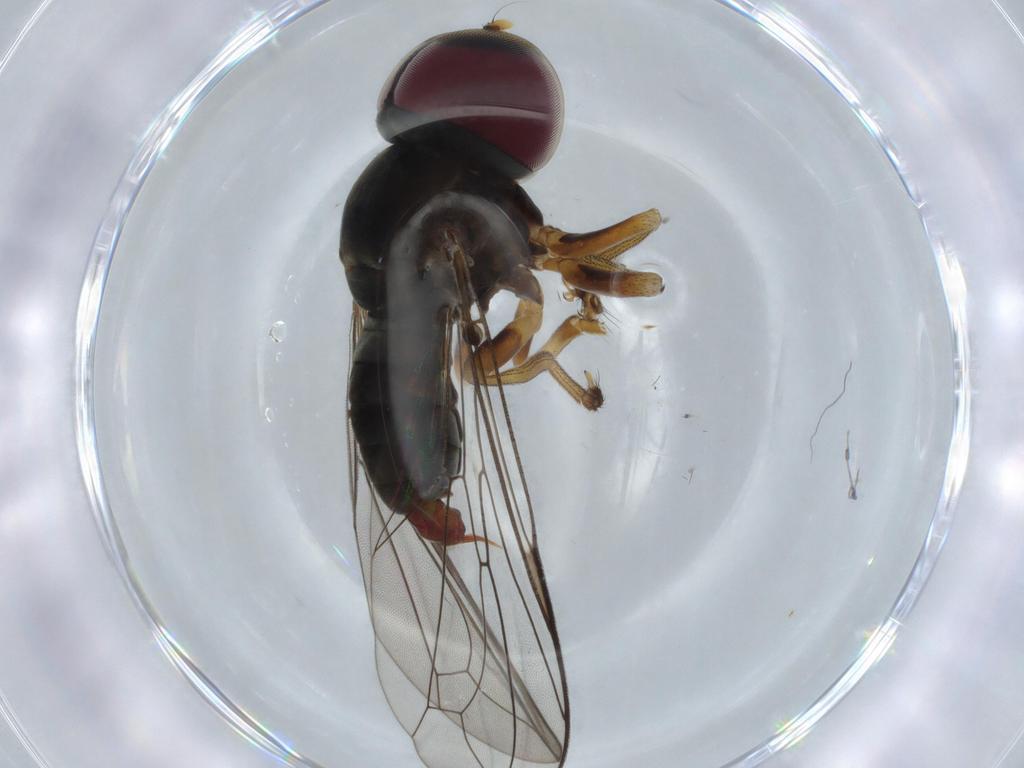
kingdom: Animalia
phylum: Arthropoda
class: Insecta
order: Diptera
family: Pipunculidae
